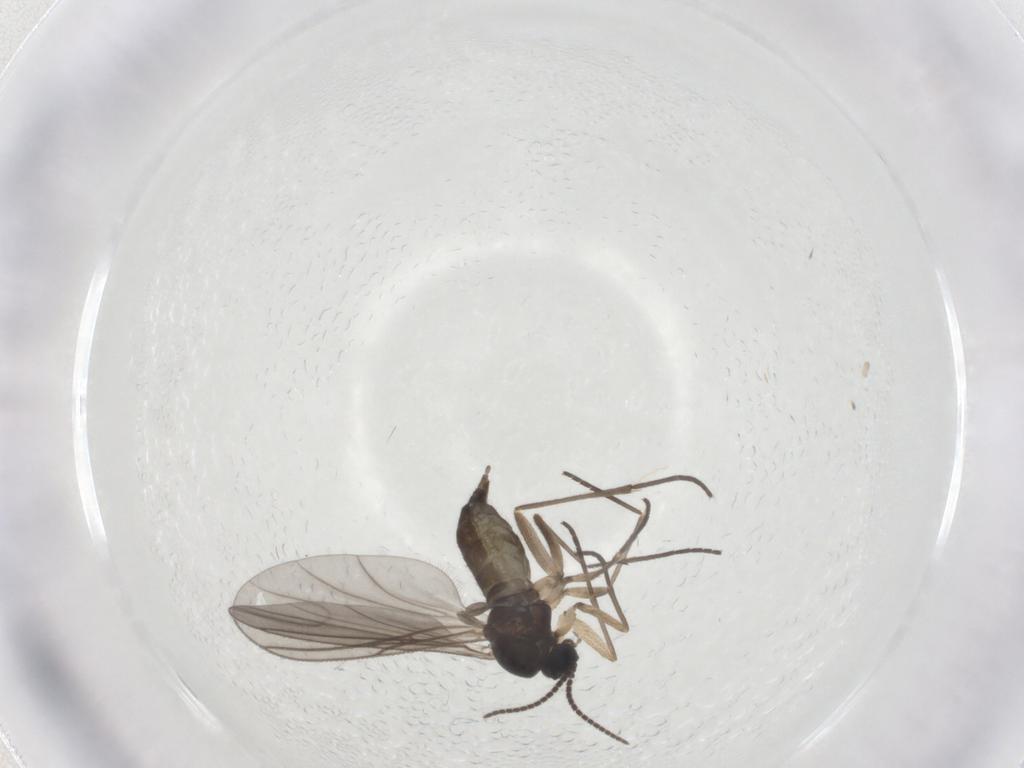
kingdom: Animalia
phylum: Arthropoda
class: Insecta
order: Diptera
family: Sciaridae
